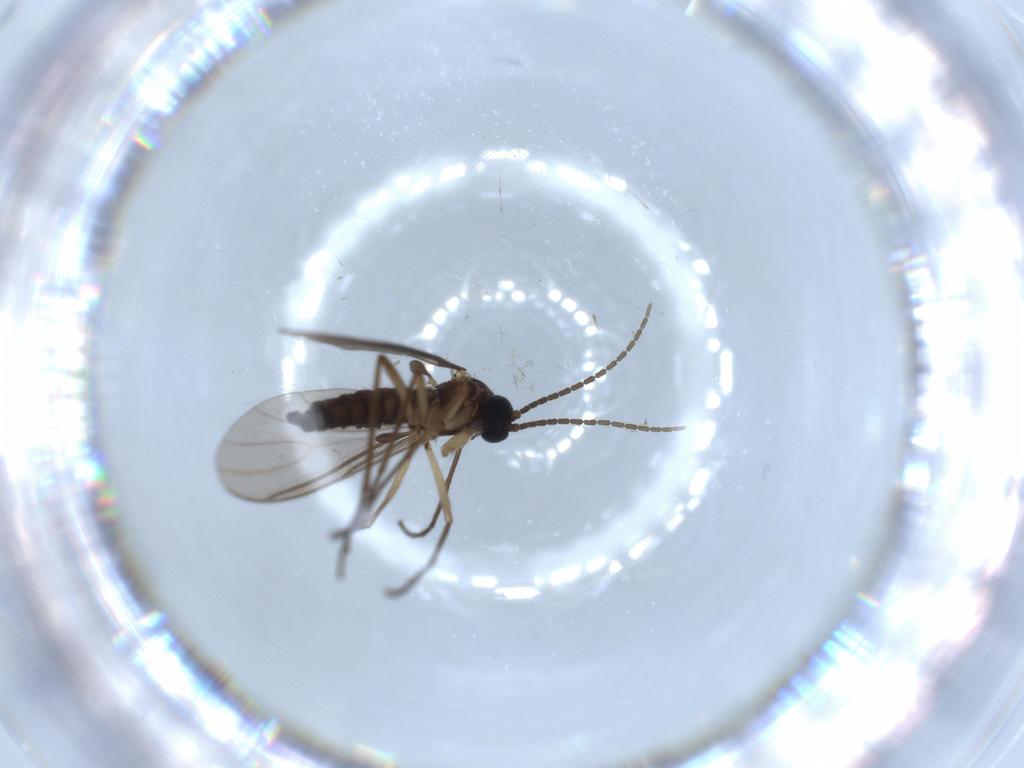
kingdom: Animalia
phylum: Arthropoda
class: Insecta
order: Diptera
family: Sciaridae
